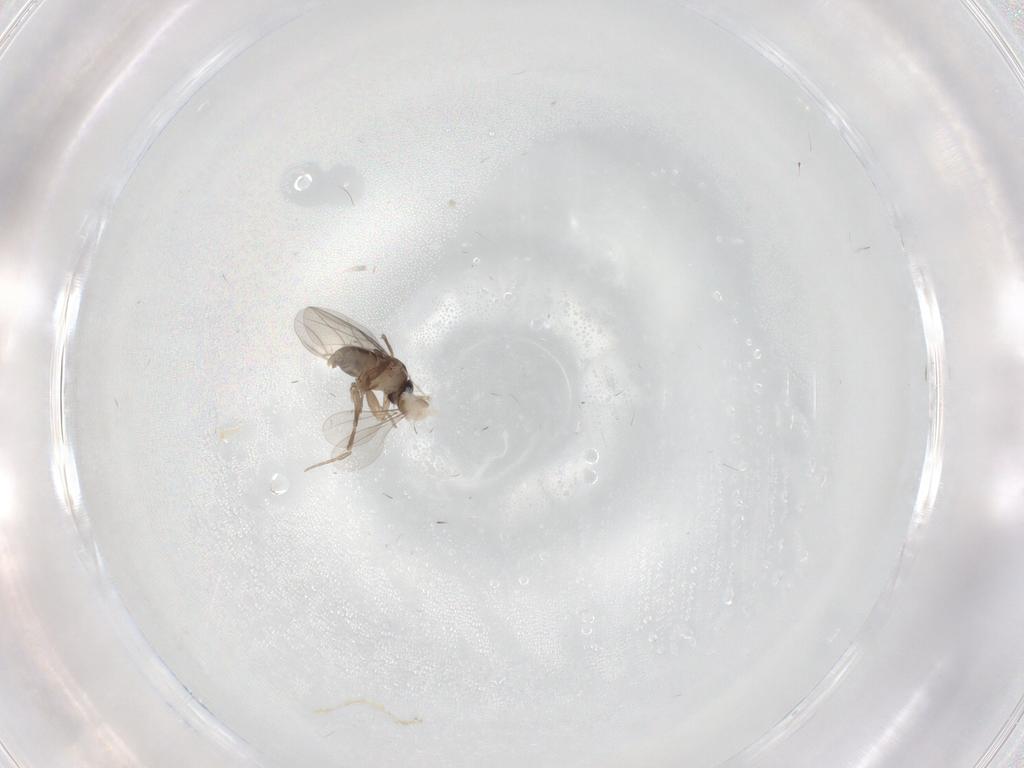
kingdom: Animalia
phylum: Arthropoda
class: Insecta
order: Diptera
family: Phoridae
